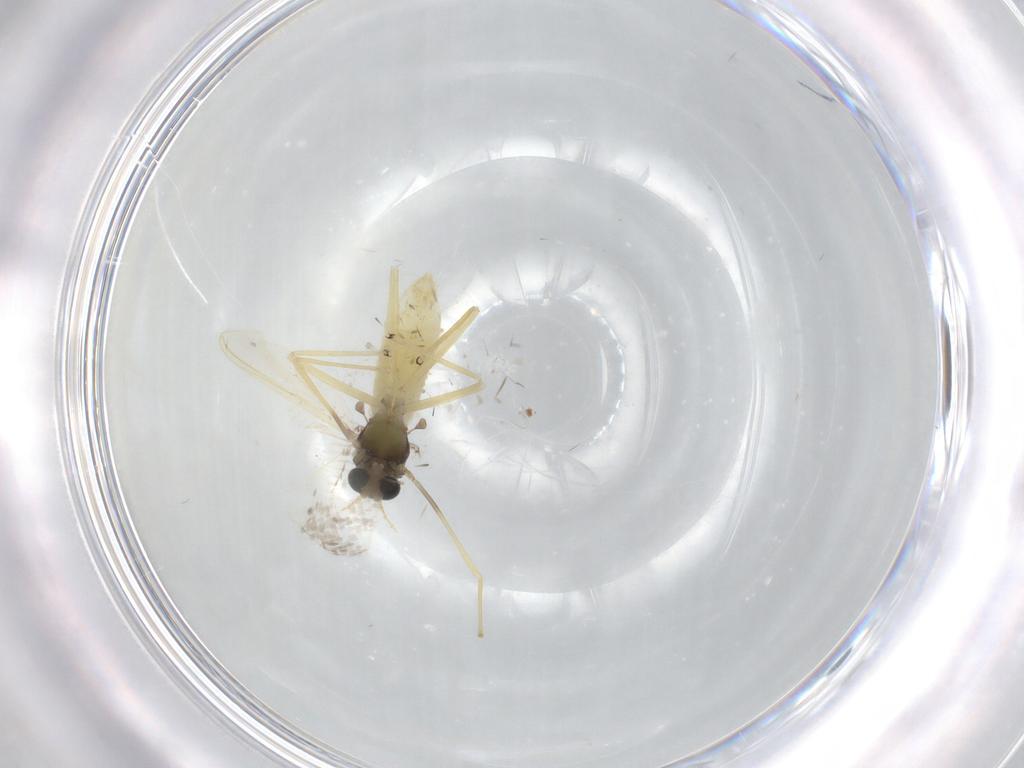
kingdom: Animalia
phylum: Arthropoda
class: Insecta
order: Diptera
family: Chironomidae
